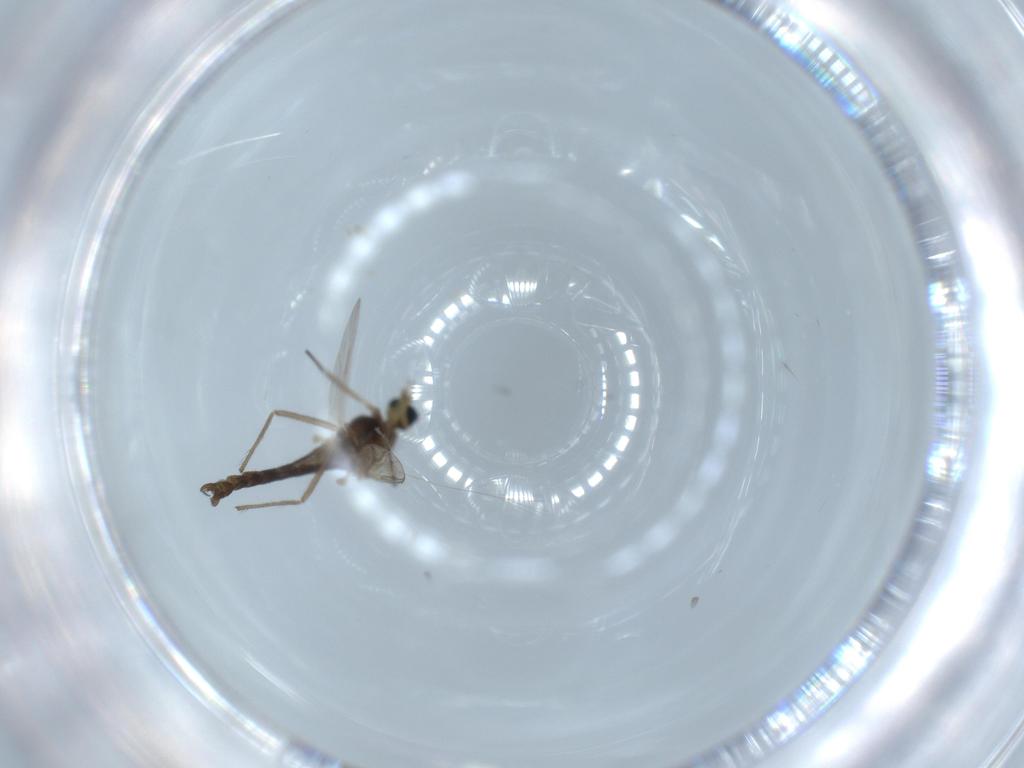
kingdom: Animalia
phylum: Arthropoda
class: Insecta
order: Diptera
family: Chironomidae
